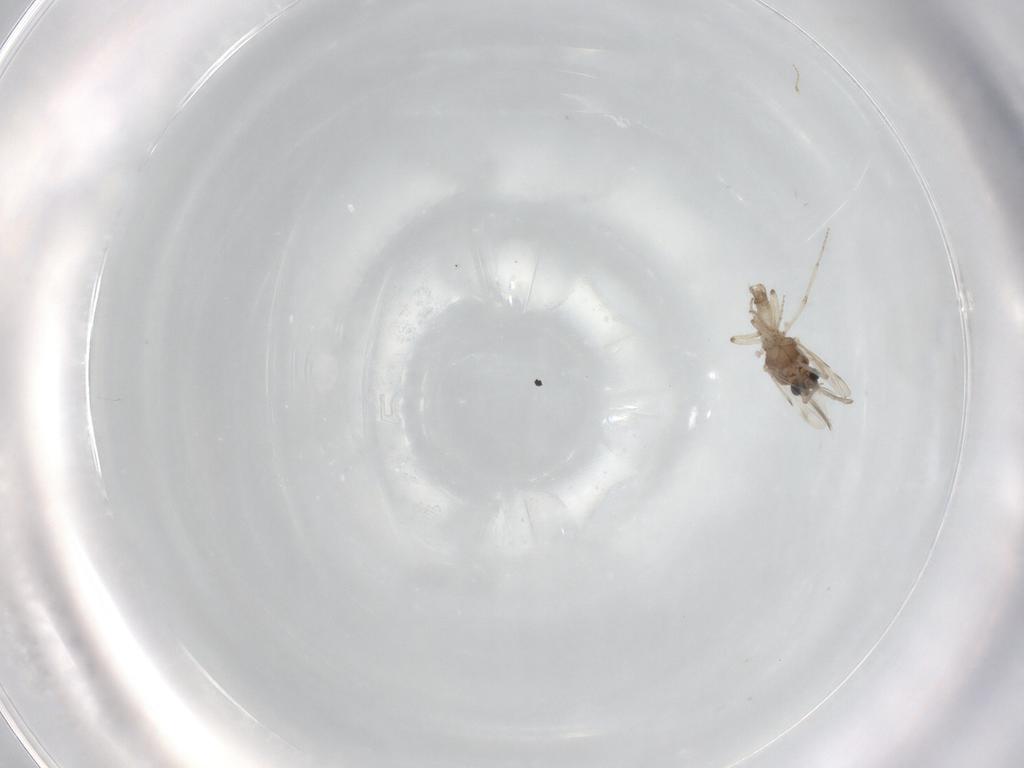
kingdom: Animalia
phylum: Arthropoda
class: Insecta
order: Diptera
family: Ceratopogonidae
